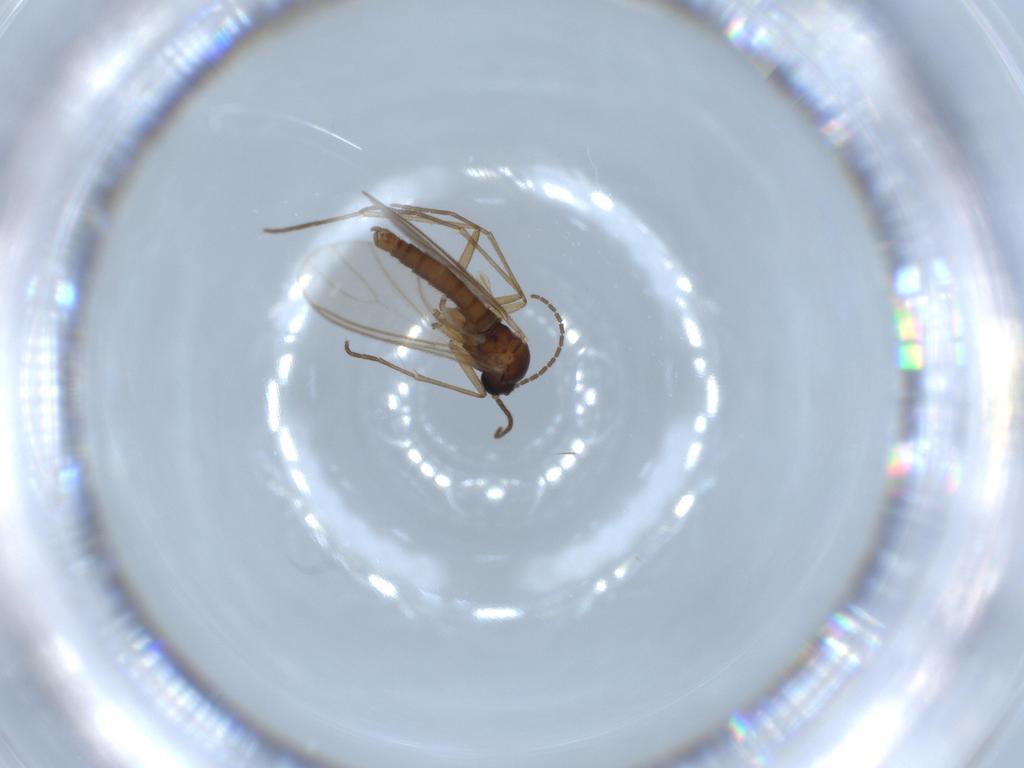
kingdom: Animalia
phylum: Arthropoda
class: Insecta
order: Diptera
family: Sciaridae
